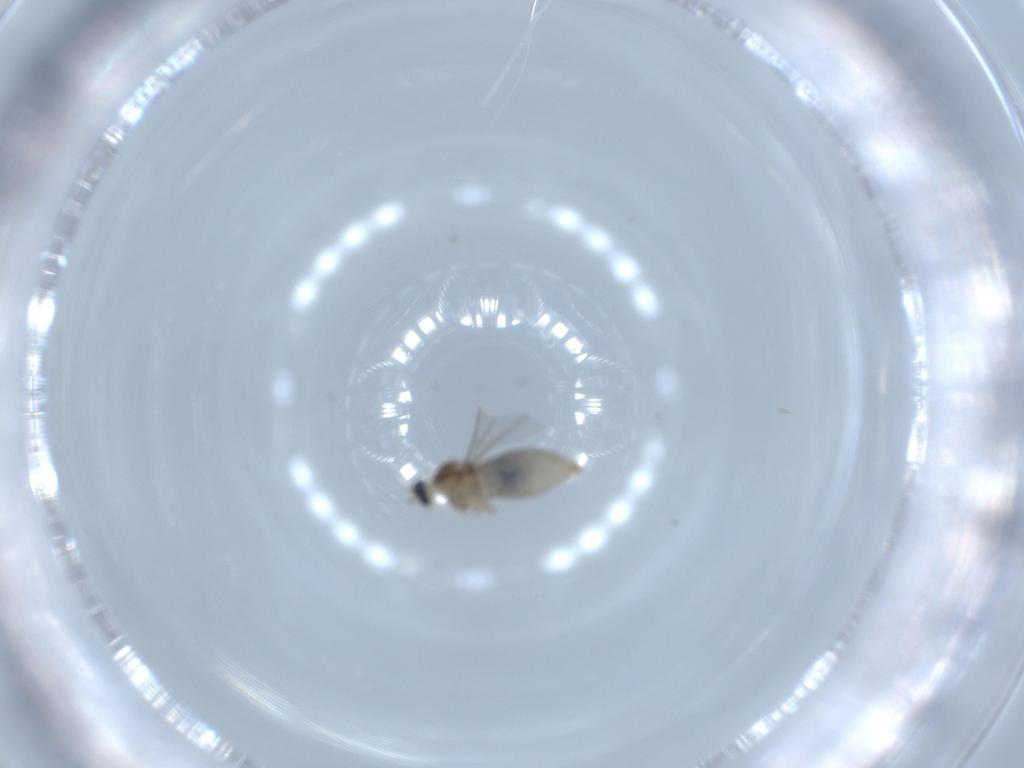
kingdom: Animalia
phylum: Arthropoda
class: Insecta
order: Diptera
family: Phoridae
